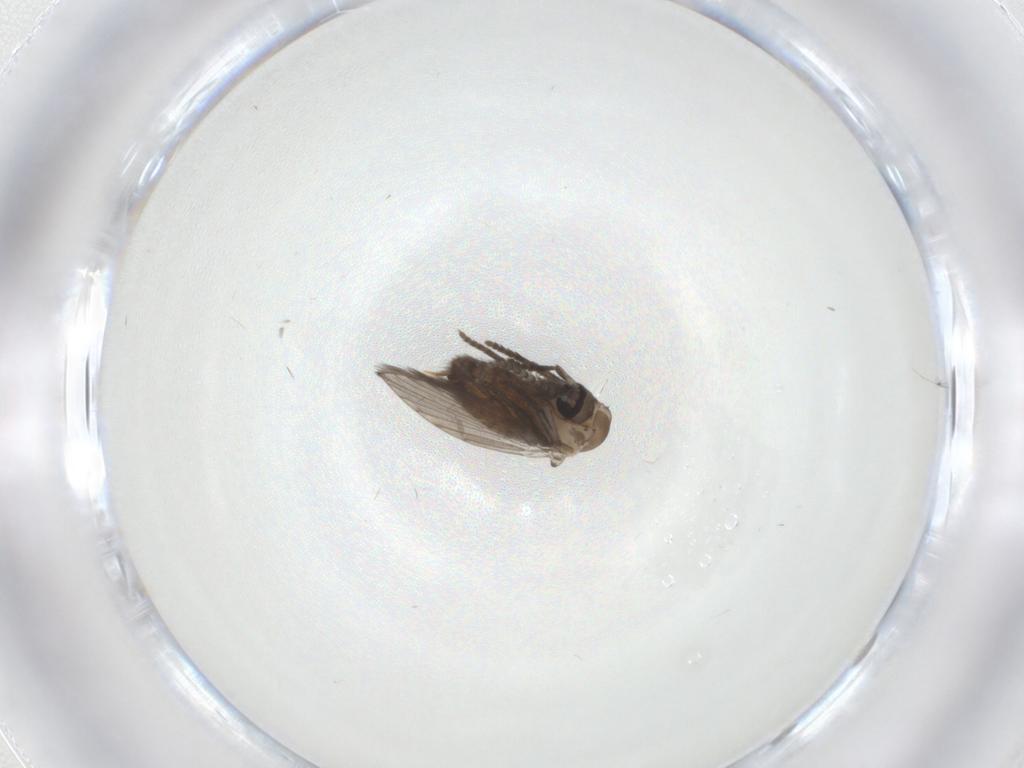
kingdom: Animalia
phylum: Arthropoda
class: Insecta
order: Diptera
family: Psychodidae
